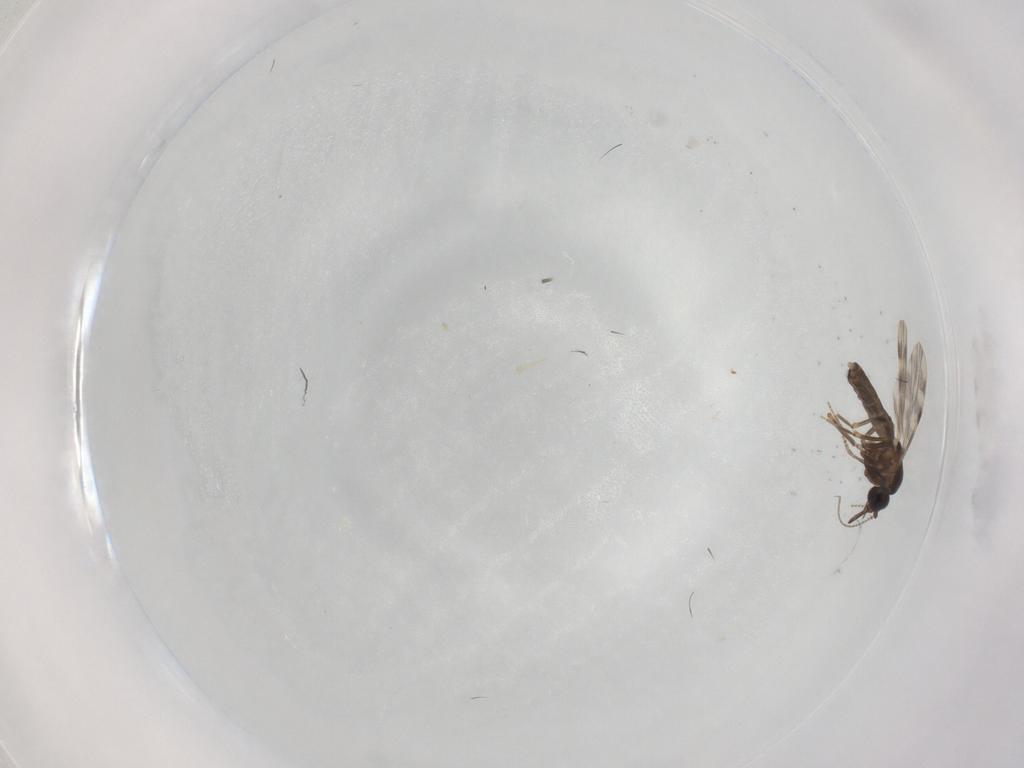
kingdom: Animalia
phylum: Arthropoda
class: Insecta
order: Diptera
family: Ceratopogonidae
